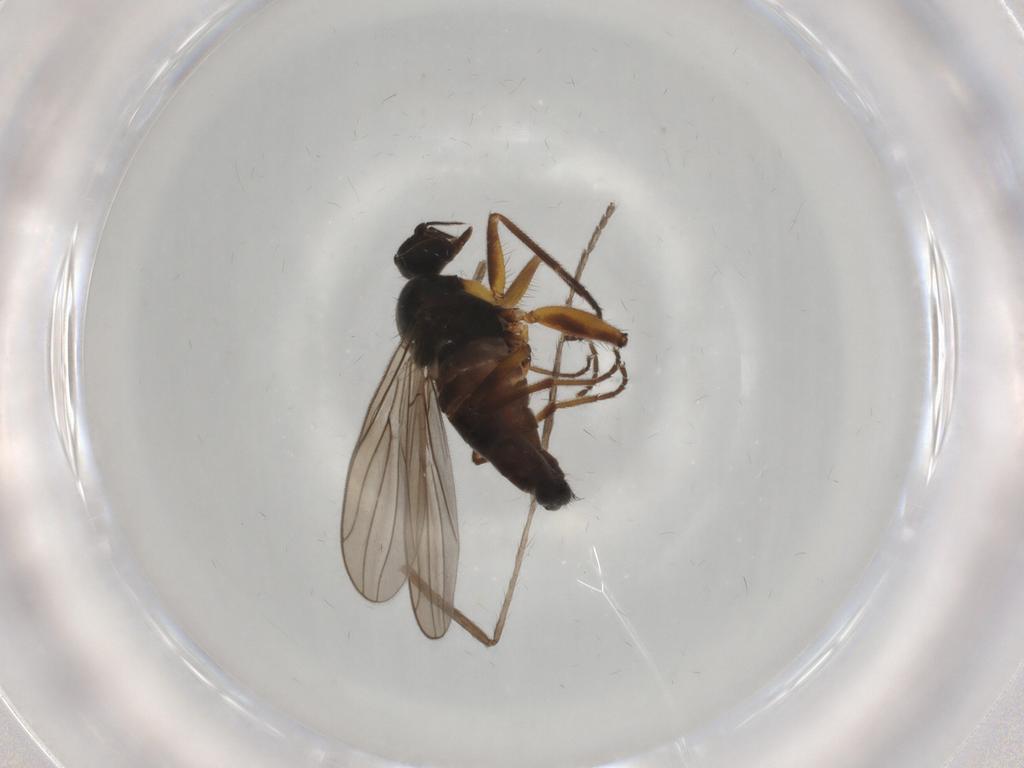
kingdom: Animalia
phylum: Arthropoda
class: Insecta
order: Diptera
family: Hybotidae
